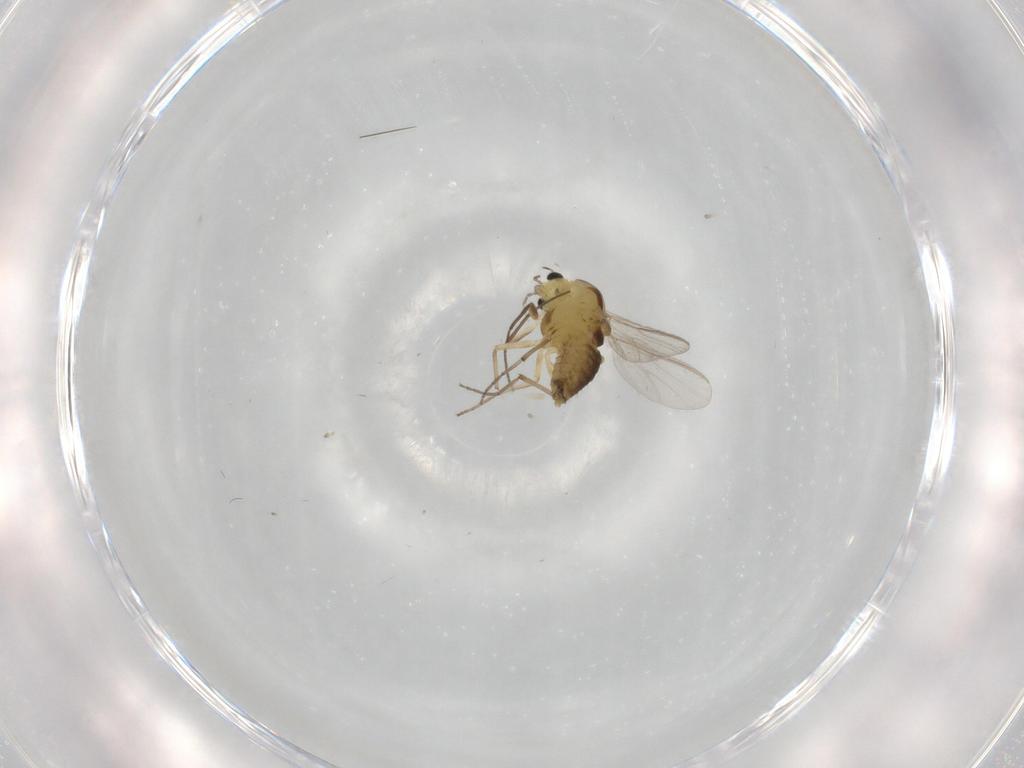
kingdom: Animalia
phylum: Arthropoda
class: Insecta
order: Diptera
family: Chironomidae
